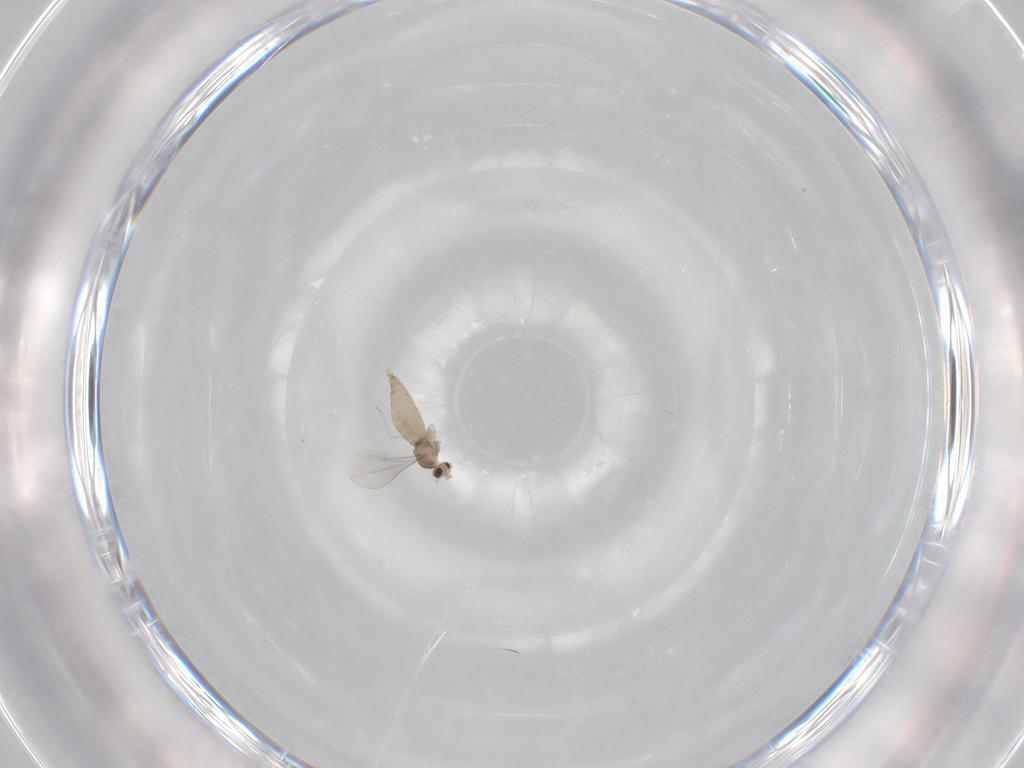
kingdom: Animalia
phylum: Arthropoda
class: Insecta
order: Diptera
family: Cecidomyiidae
